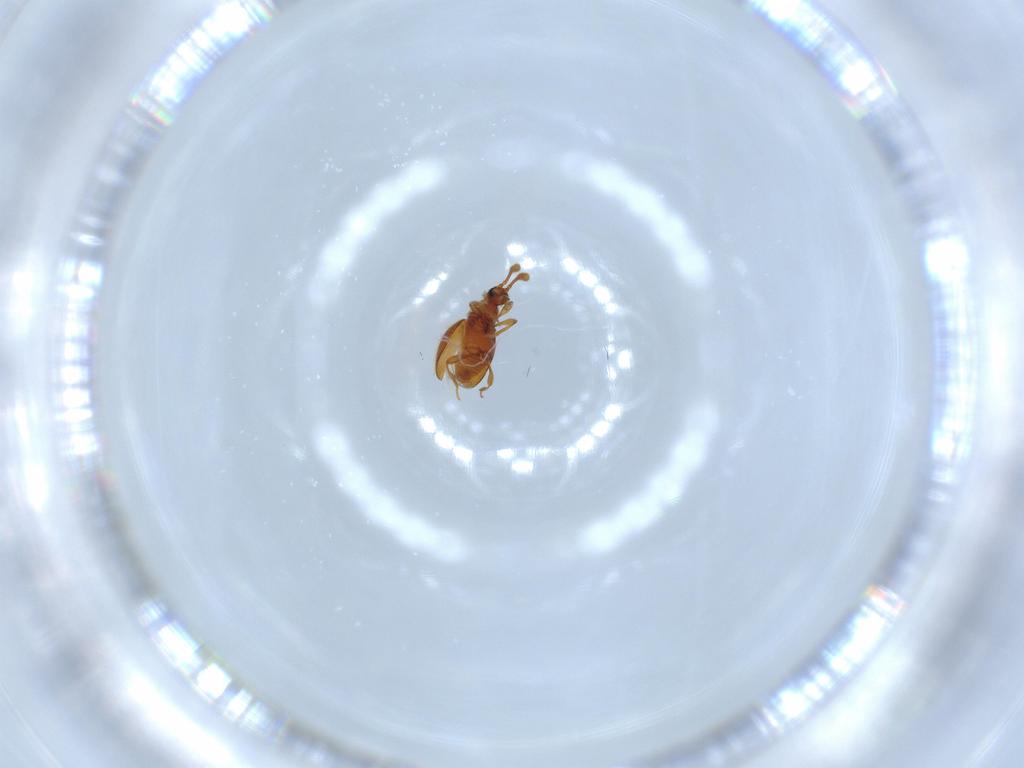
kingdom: Animalia
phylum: Arthropoda
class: Insecta
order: Coleoptera
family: Staphylinidae
